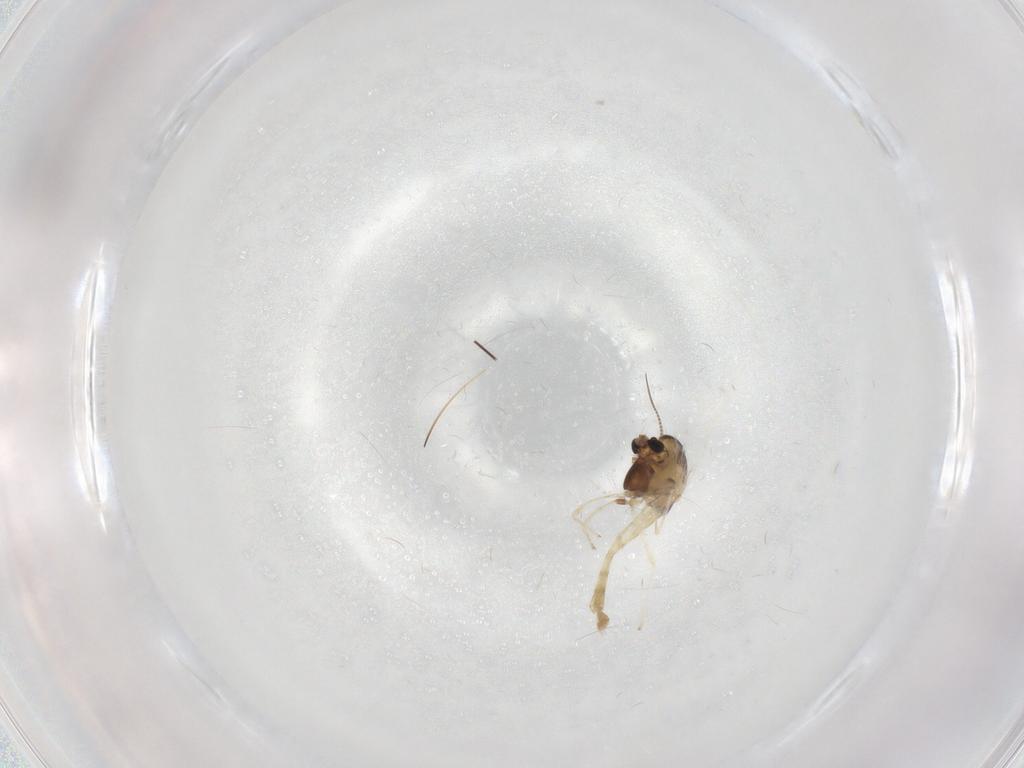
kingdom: Animalia
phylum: Arthropoda
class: Insecta
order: Diptera
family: Chironomidae
